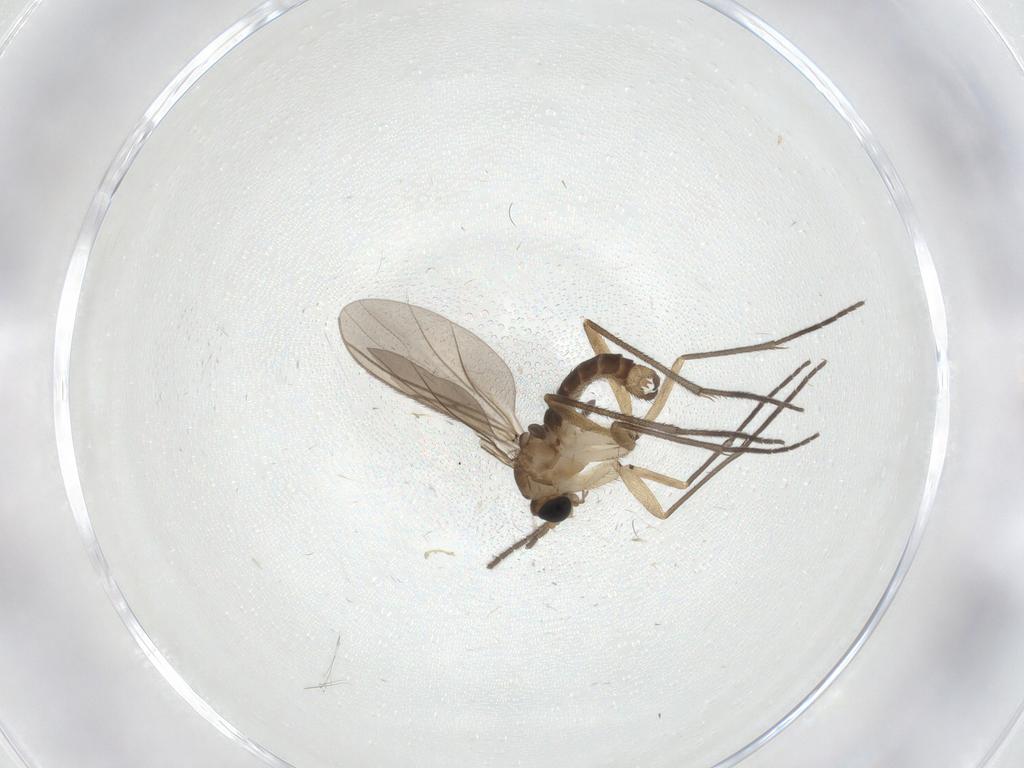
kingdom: Animalia
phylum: Arthropoda
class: Insecta
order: Diptera
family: Sciaridae
